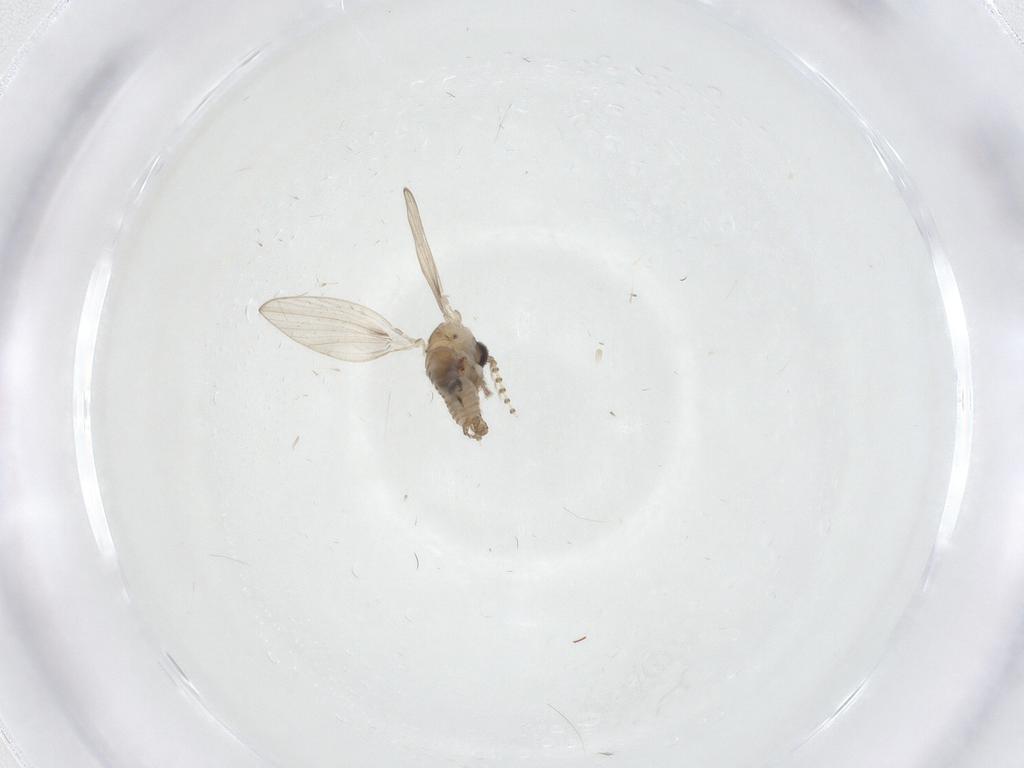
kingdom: Animalia
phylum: Arthropoda
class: Insecta
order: Diptera
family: Psychodidae
